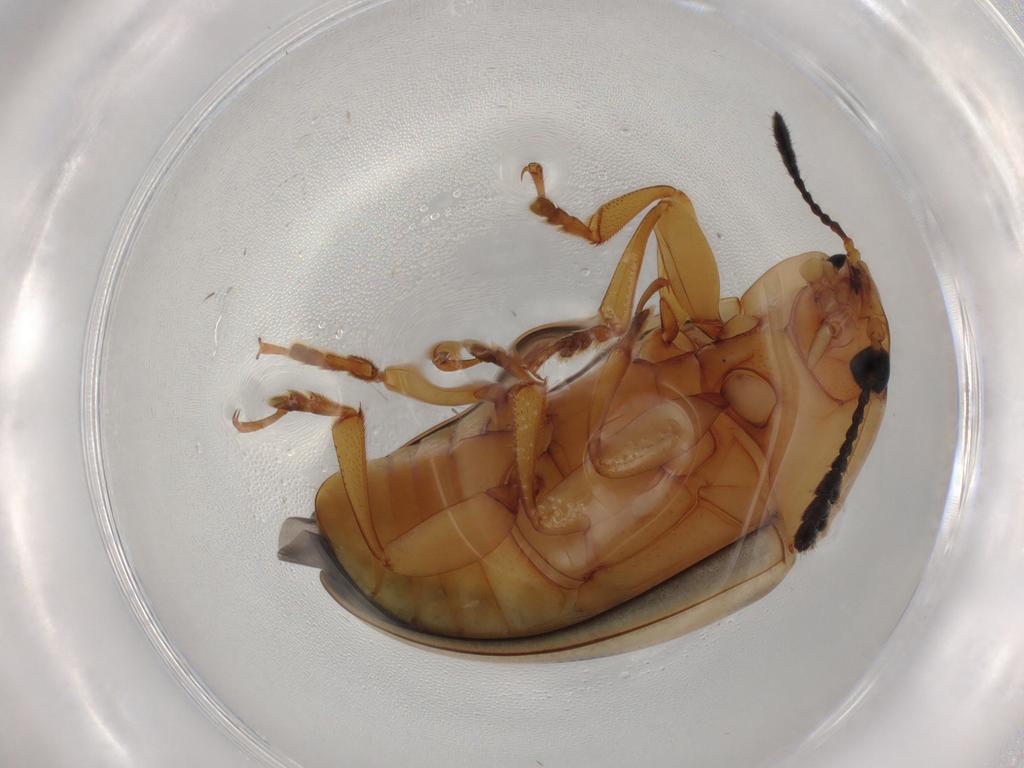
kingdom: Animalia
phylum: Arthropoda
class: Insecta
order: Coleoptera
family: Erotylidae
